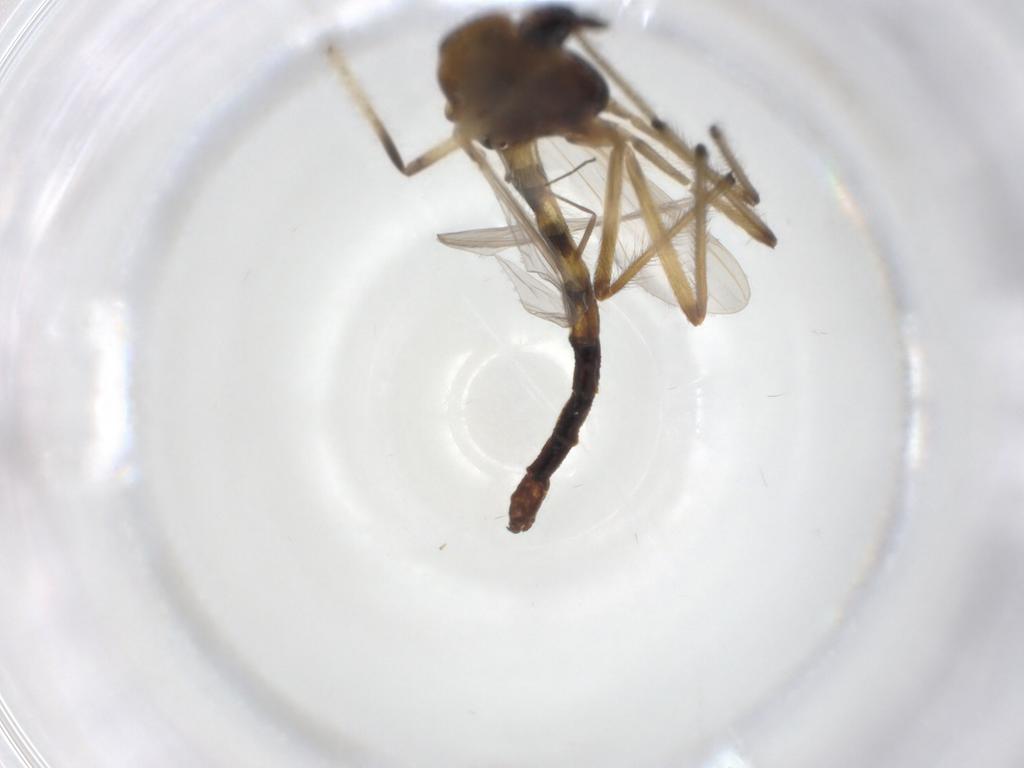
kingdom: Animalia
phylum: Arthropoda
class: Insecta
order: Diptera
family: Chironomidae
